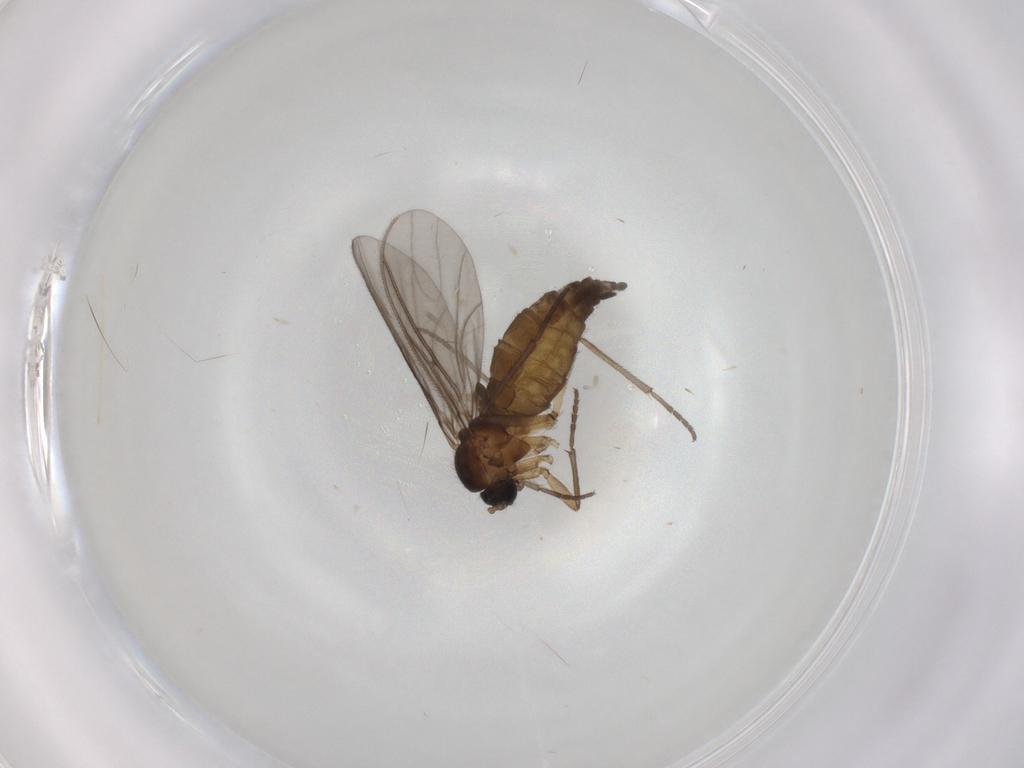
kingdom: Animalia
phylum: Arthropoda
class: Insecta
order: Diptera
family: Sciaridae
